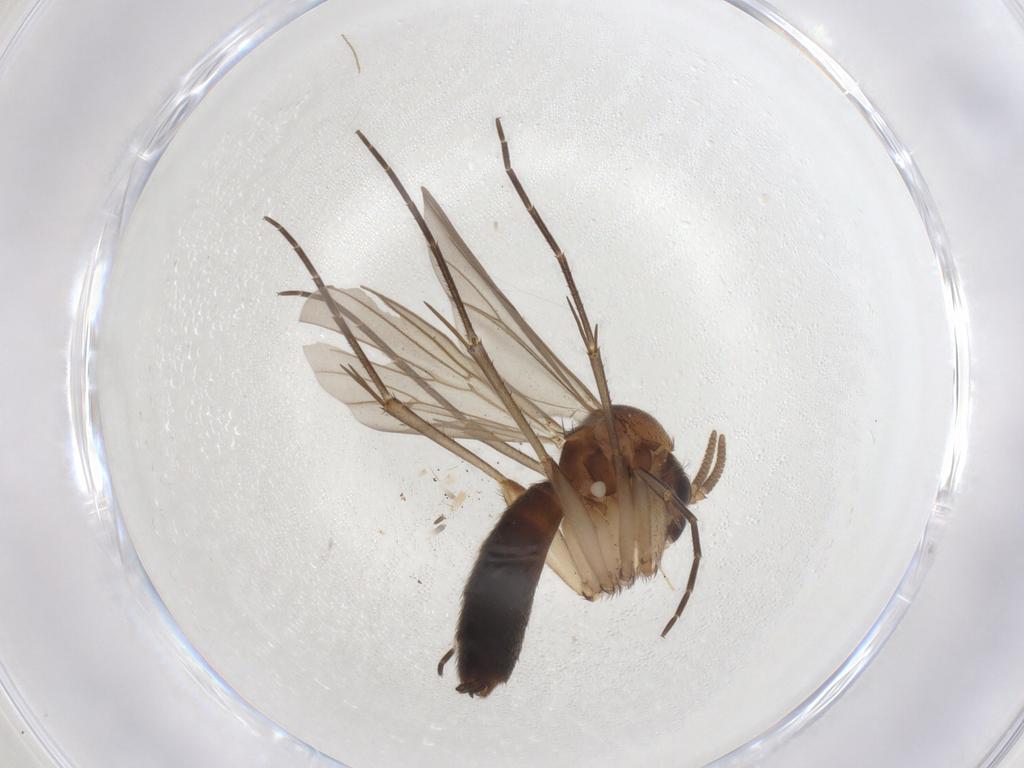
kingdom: Animalia
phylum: Arthropoda
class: Insecta
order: Diptera
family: Mycetophilidae
